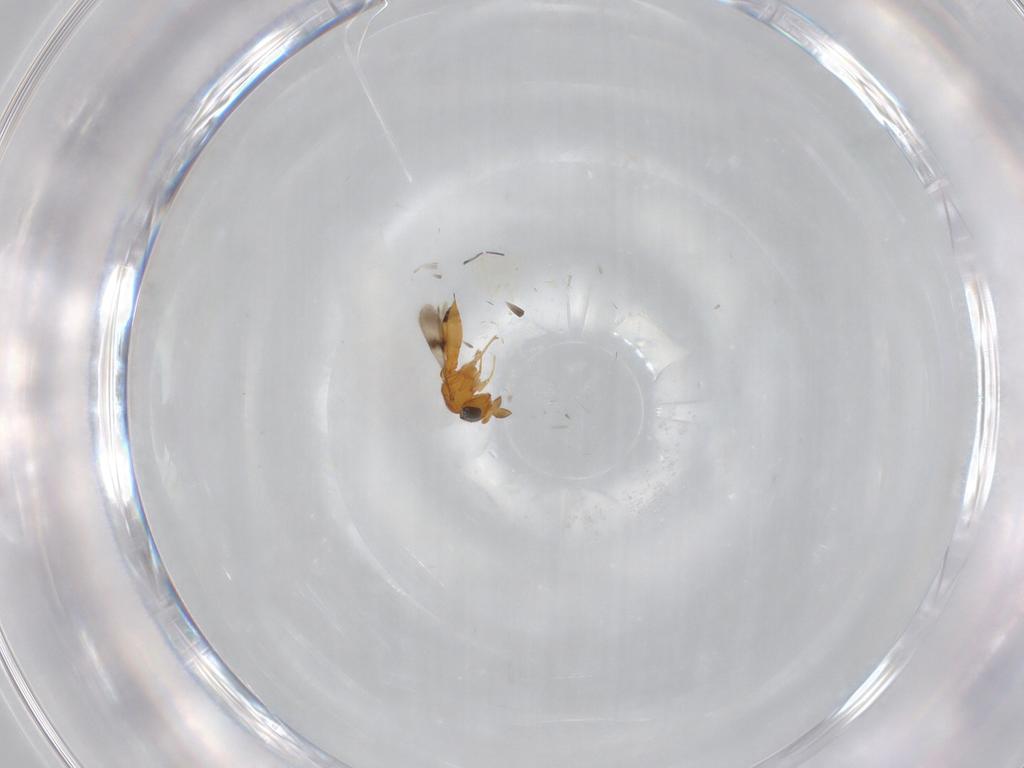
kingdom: Animalia
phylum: Arthropoda
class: Insecta
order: Hymenoptera
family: Scelionidae
